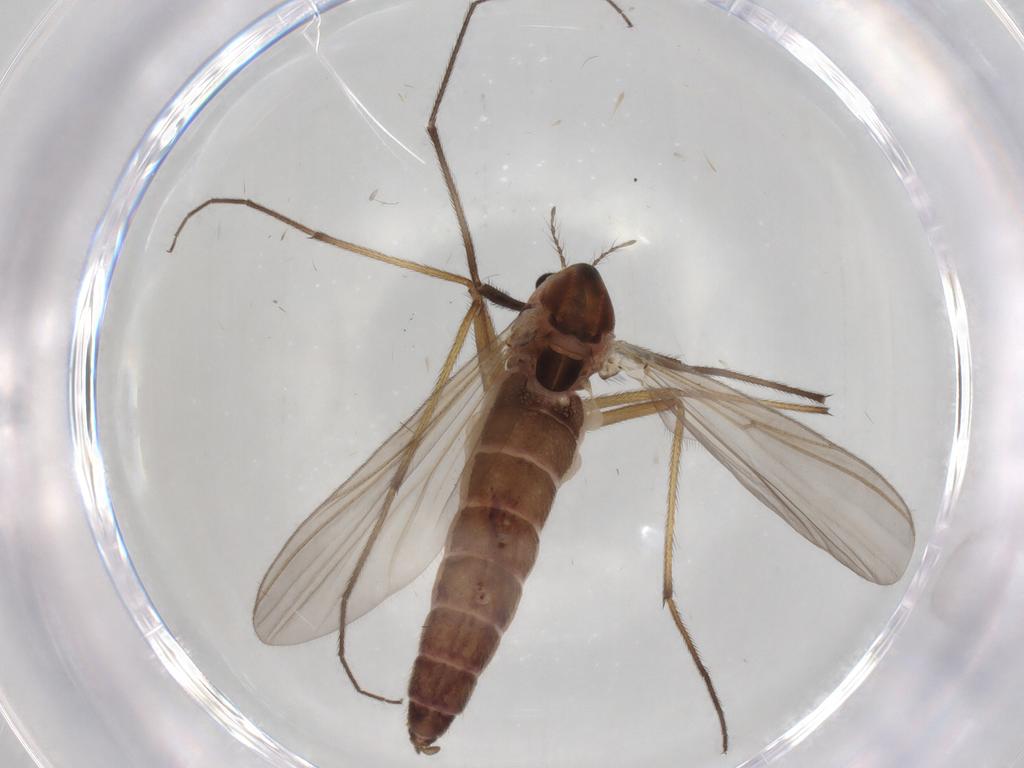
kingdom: Animalia
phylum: Arthropoda
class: Insecta
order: Diptera
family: Chironomidae
